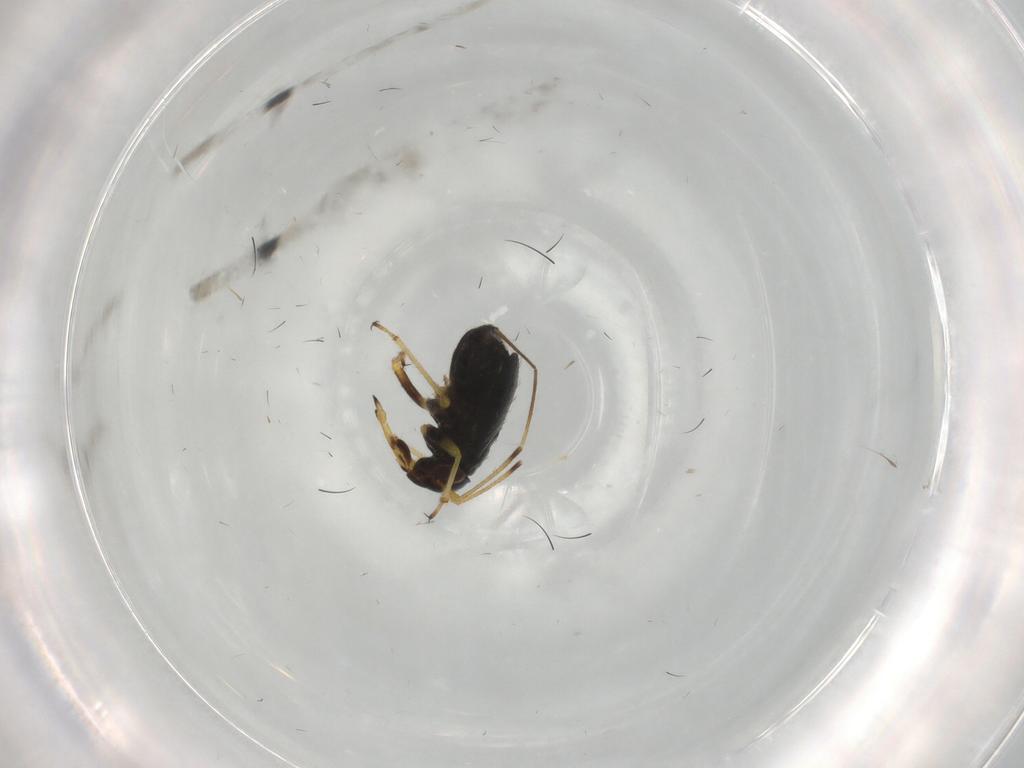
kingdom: Animalia
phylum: Arthropoda
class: Insecta
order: Hemiptera
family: Miridae
